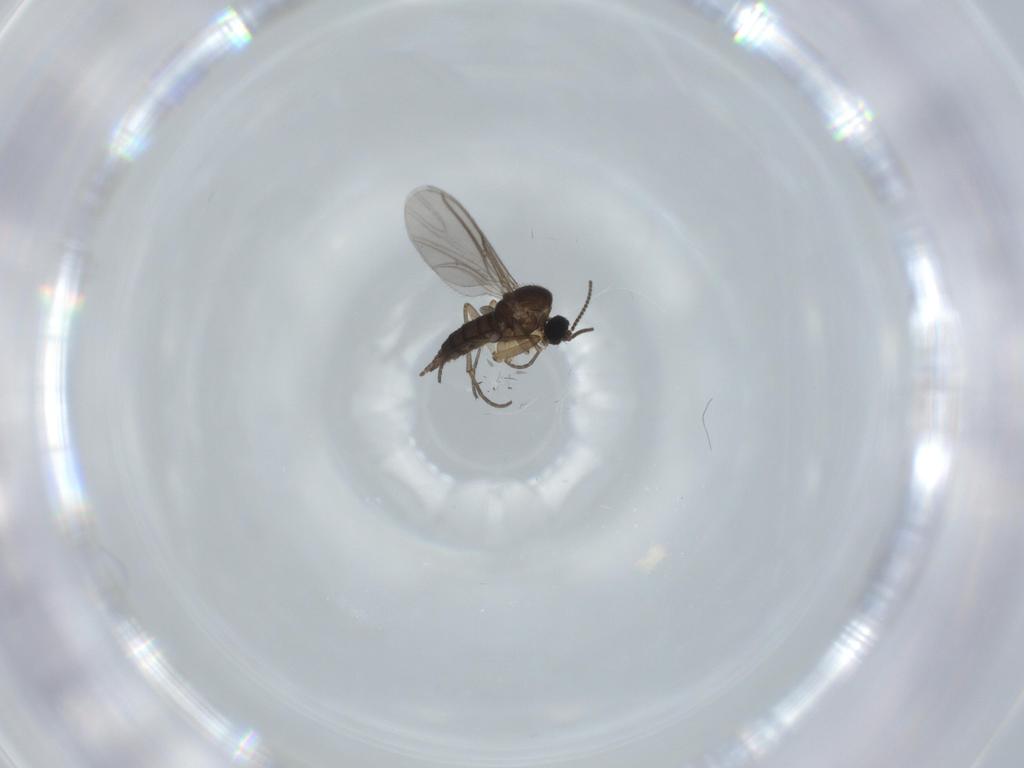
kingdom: Animalia
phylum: Arthropoda
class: Insecta
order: Diptera
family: Sciaridae
